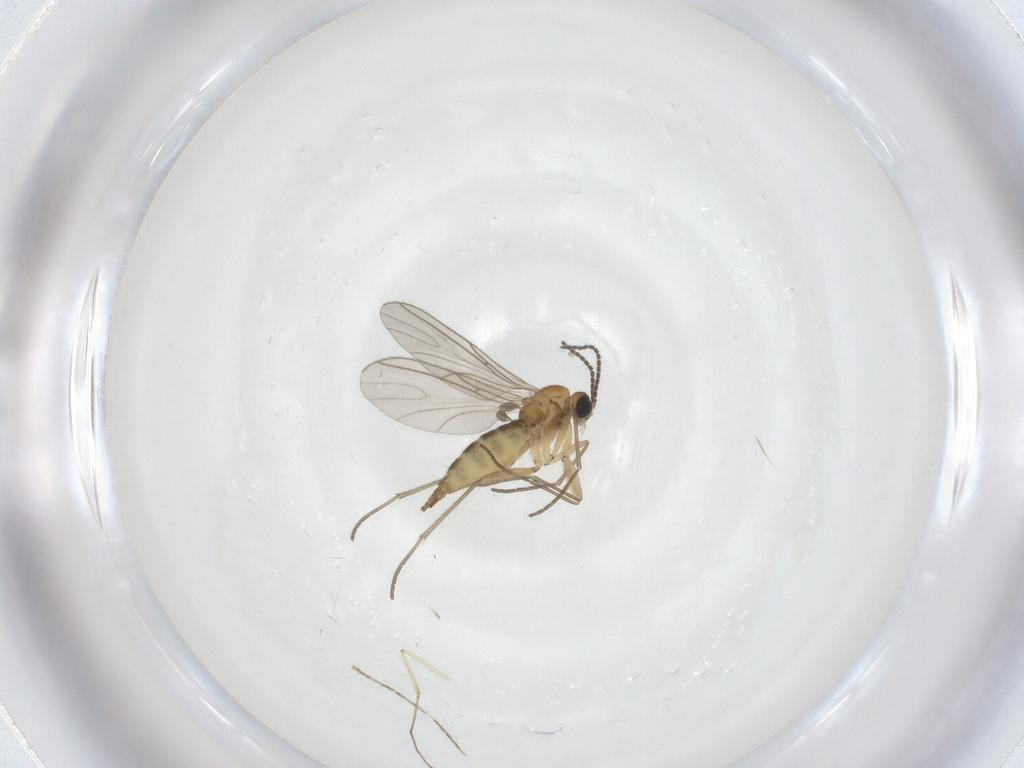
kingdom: Animalia
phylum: Arthropoda
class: Insecta
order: Diptera
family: Sciaridae
